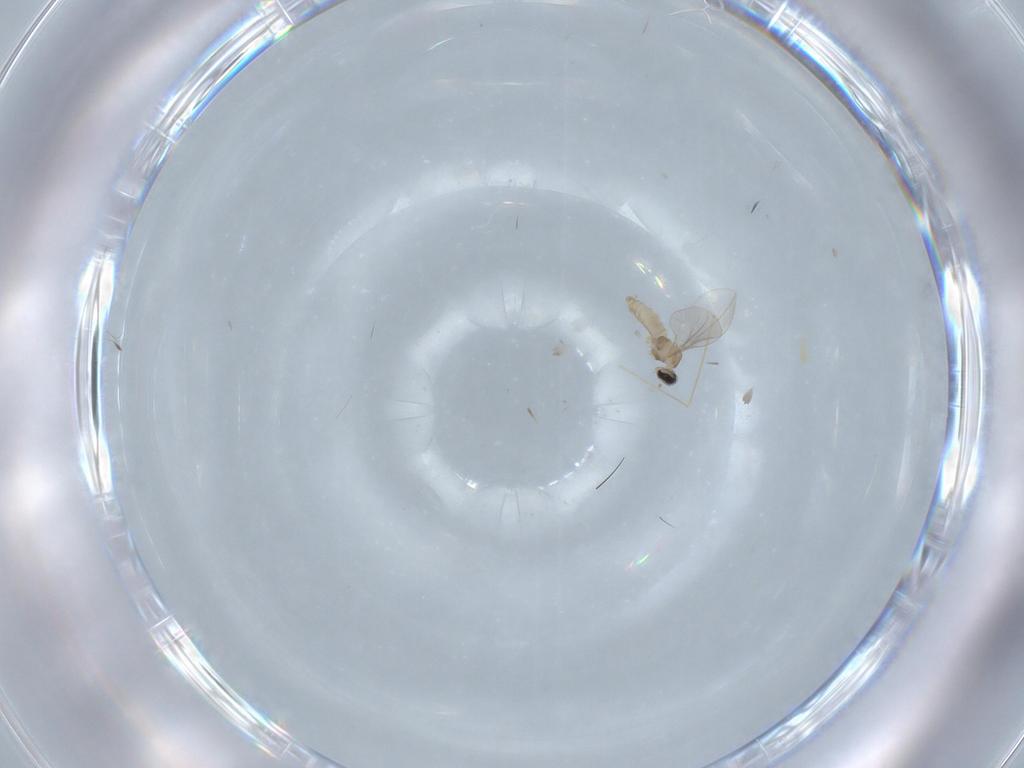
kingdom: Animalia
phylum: Arthropoda
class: Insecta
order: Diptera
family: Cecidomyiidae
